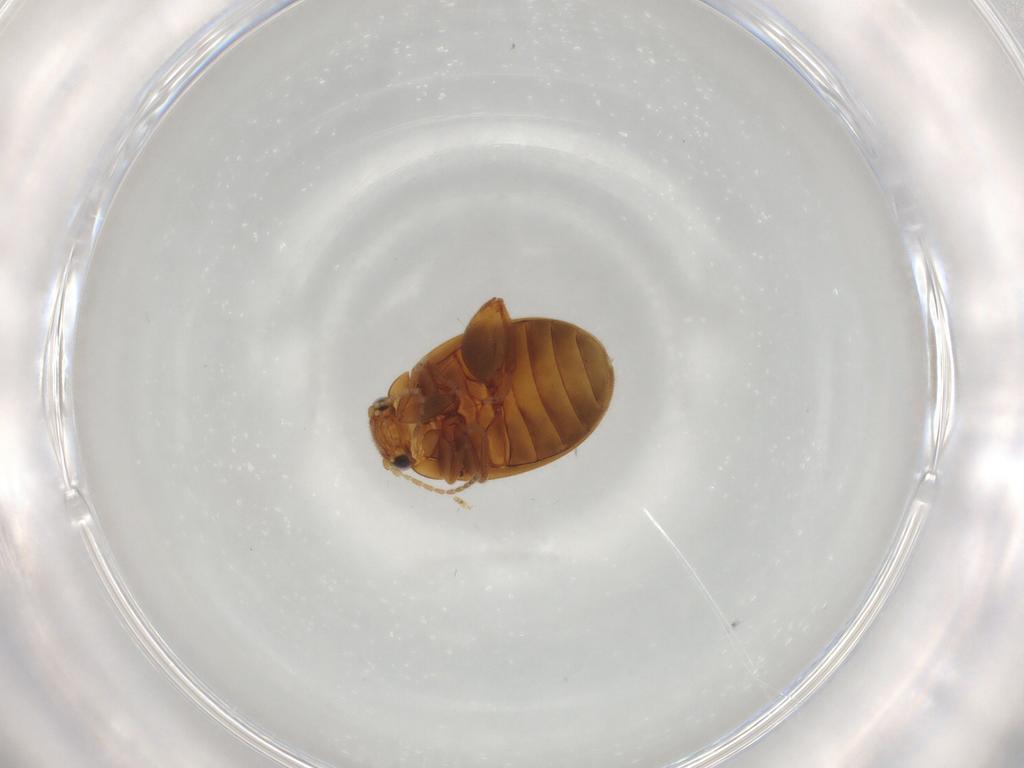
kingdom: Animalia
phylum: Arthropoda
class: Insecta
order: Coleoptera
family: Scirtidae
